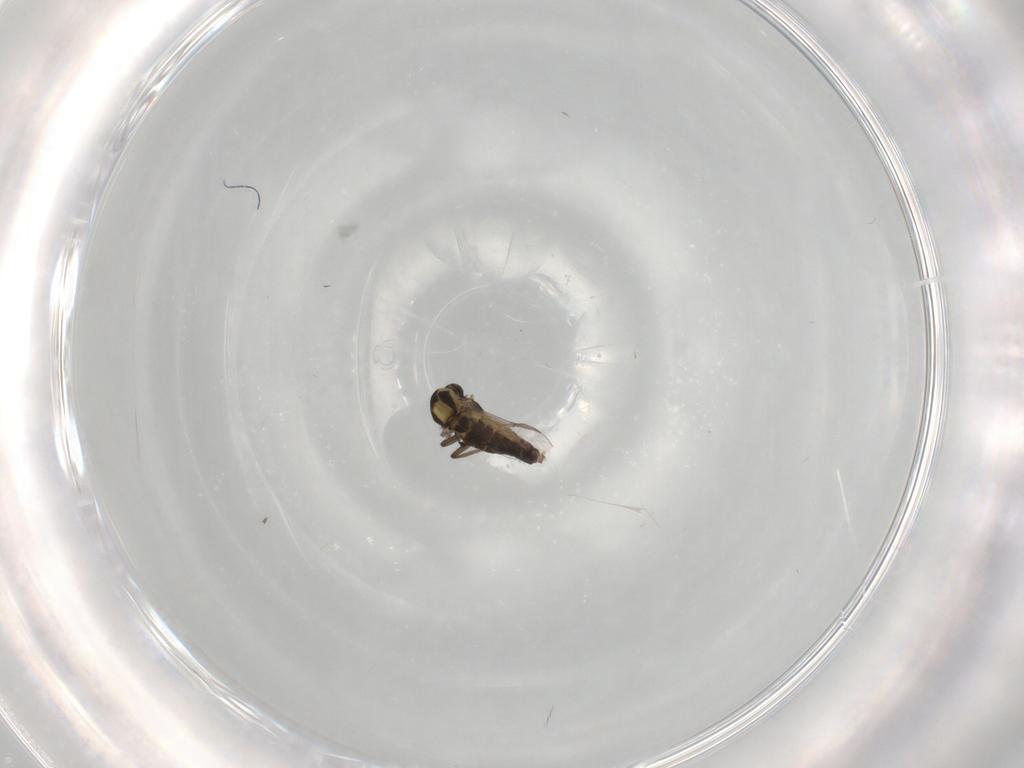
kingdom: Animalia
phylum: Arthropoda
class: Insecta
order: Diptera
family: Chironomidae
